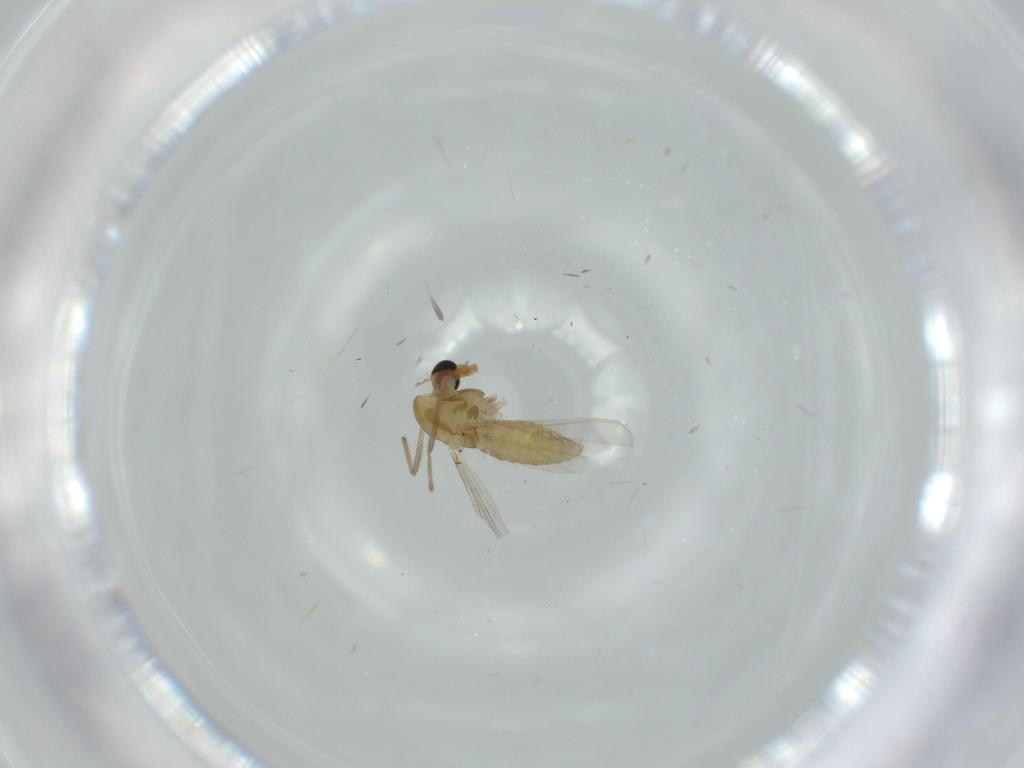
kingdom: Animalia
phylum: Arthropoda
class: Insecta
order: Diptera
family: Chironomidae
